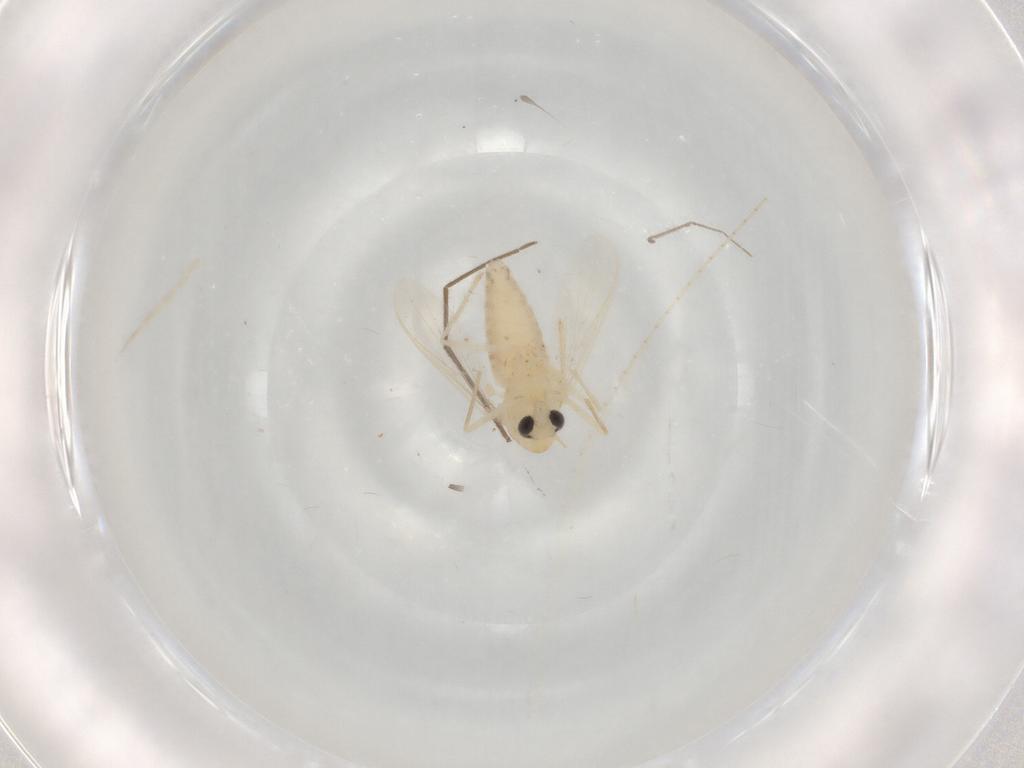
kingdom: Animalia
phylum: Arthropoda
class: Insecta
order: Diptera
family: Chironomidae
